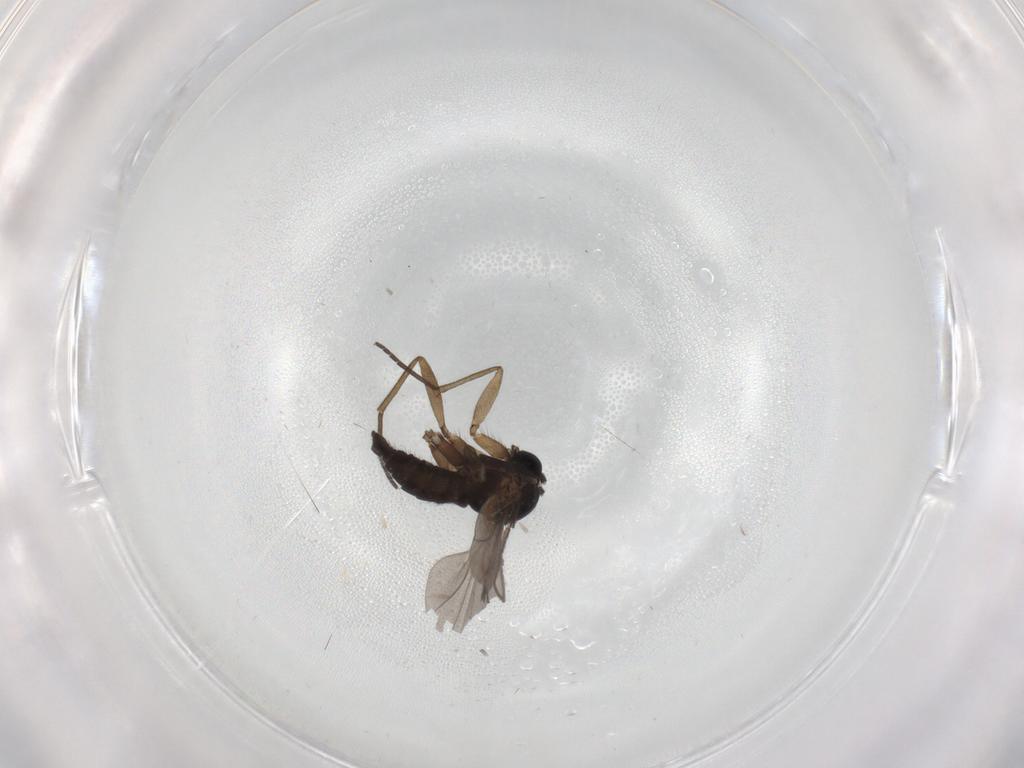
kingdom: Animalia
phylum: Arthropoda
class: Insecta
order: Diptera
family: Sciaridae
